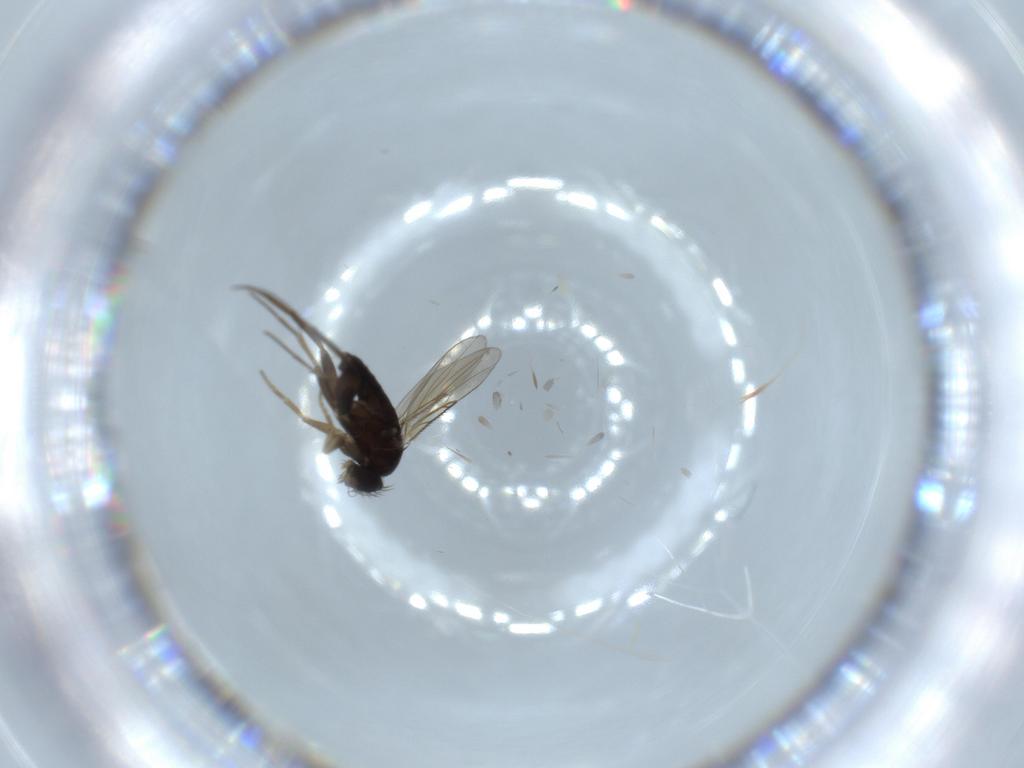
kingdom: Animalia
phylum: Arthropoda
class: Insecta
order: Diptera
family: Phoridae
